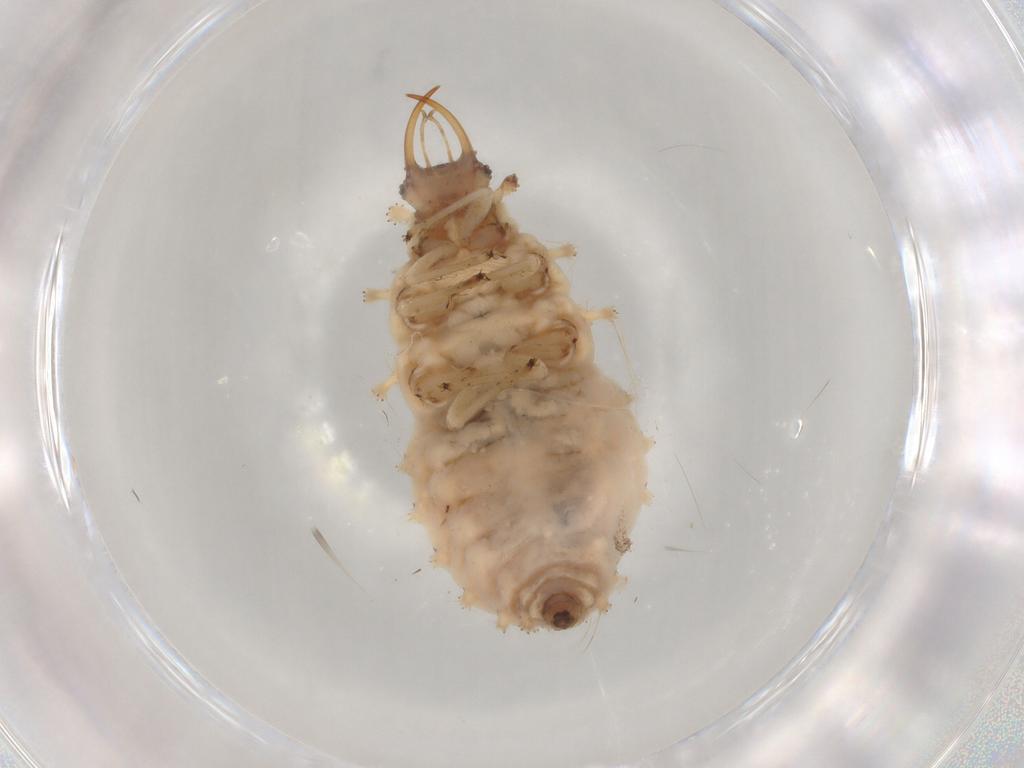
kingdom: Animalia
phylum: Arthropoda
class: Insecta
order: Neuroptera
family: Chrysopidae
